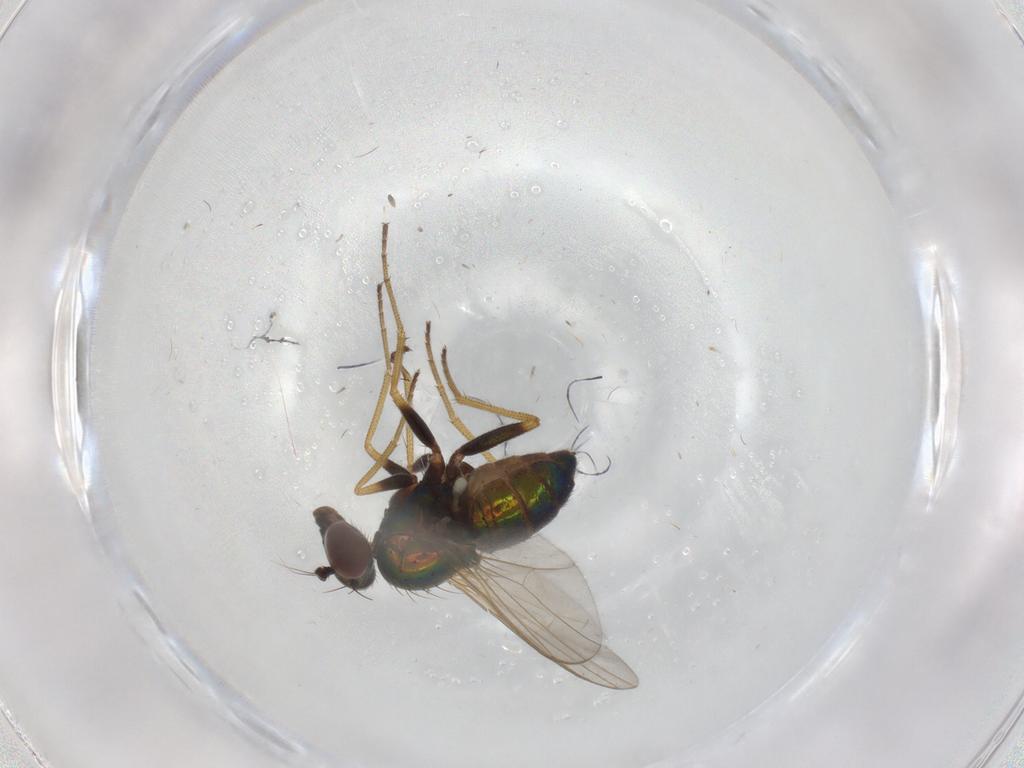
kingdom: Animalia
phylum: Arthropoda
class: Insecta
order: Diptera
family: Dolichopodidae
